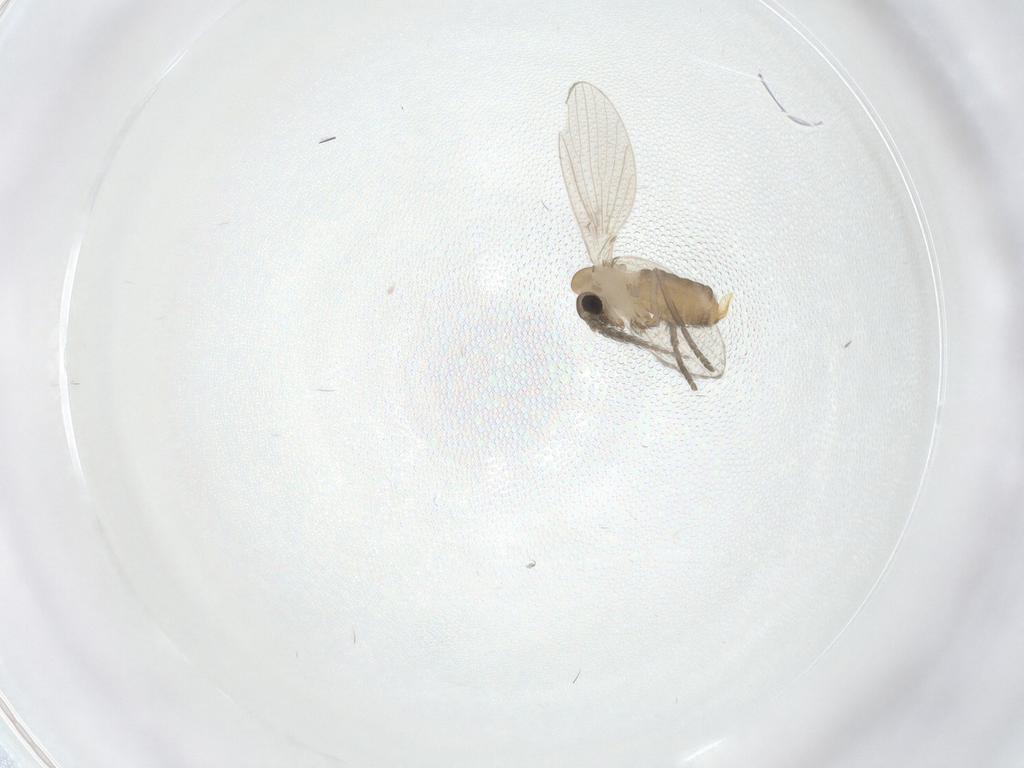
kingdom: Animalia
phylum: Arthropoda
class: Insecta
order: Diptera
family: Psychodidae
